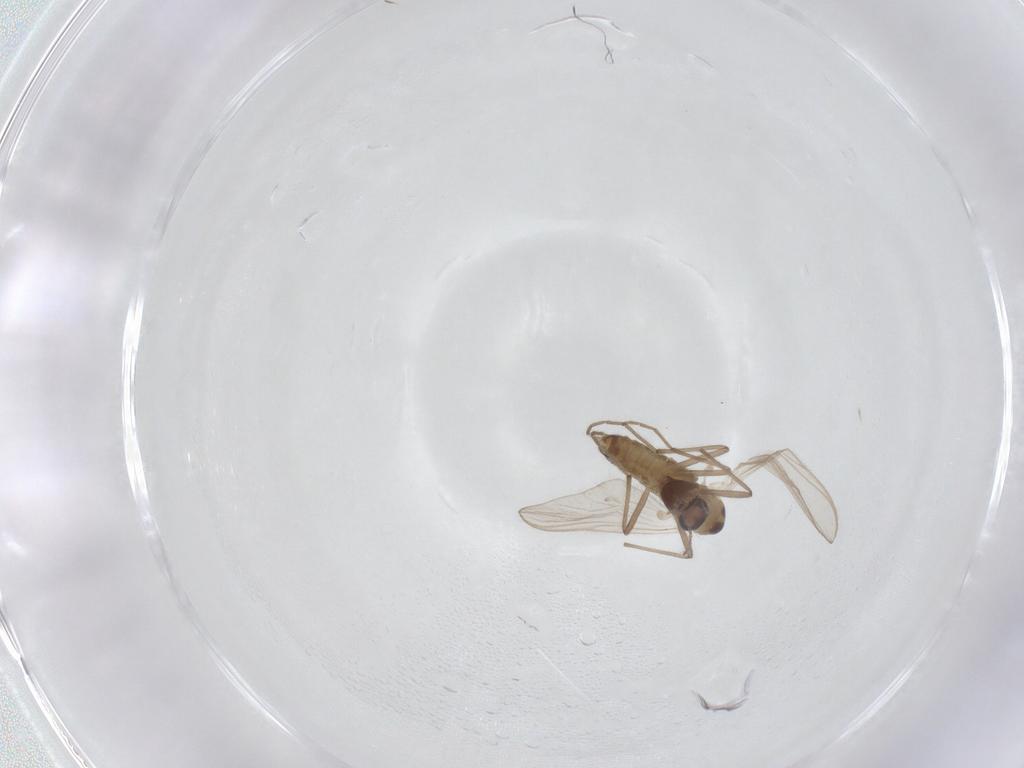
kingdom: Animalia
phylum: Arthropoda
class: Insecta
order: Diptera
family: Chironomidae
